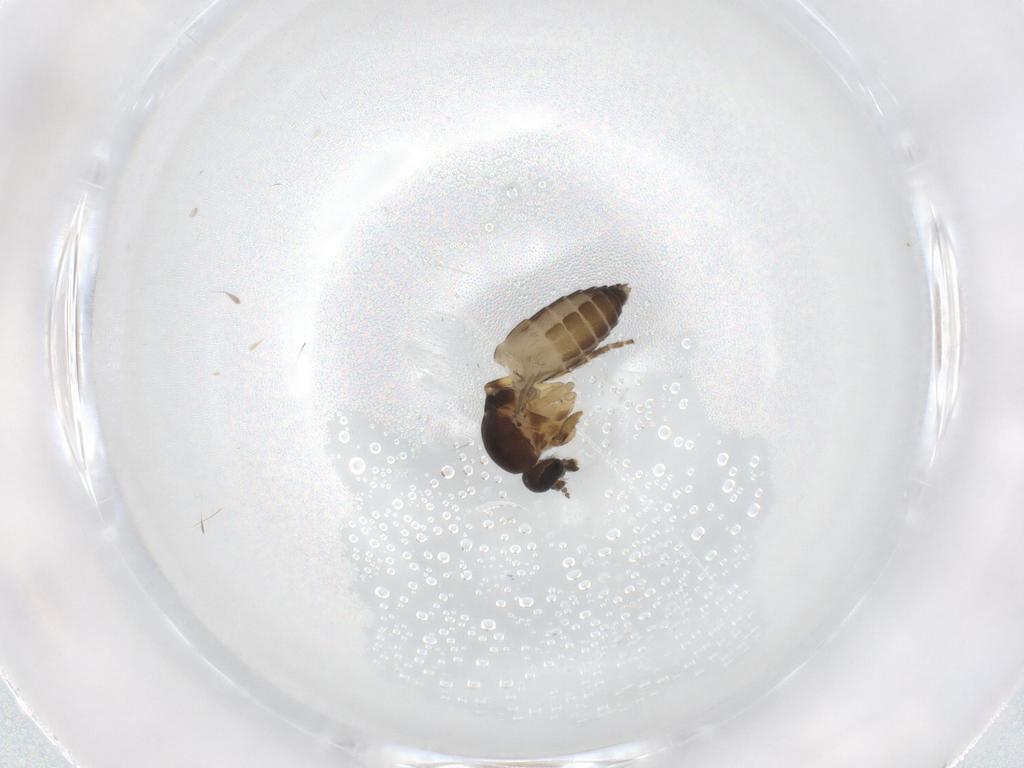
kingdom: Animalia
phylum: Arthropoda
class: Insecta
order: Diptera
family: Ceratopogonidae
